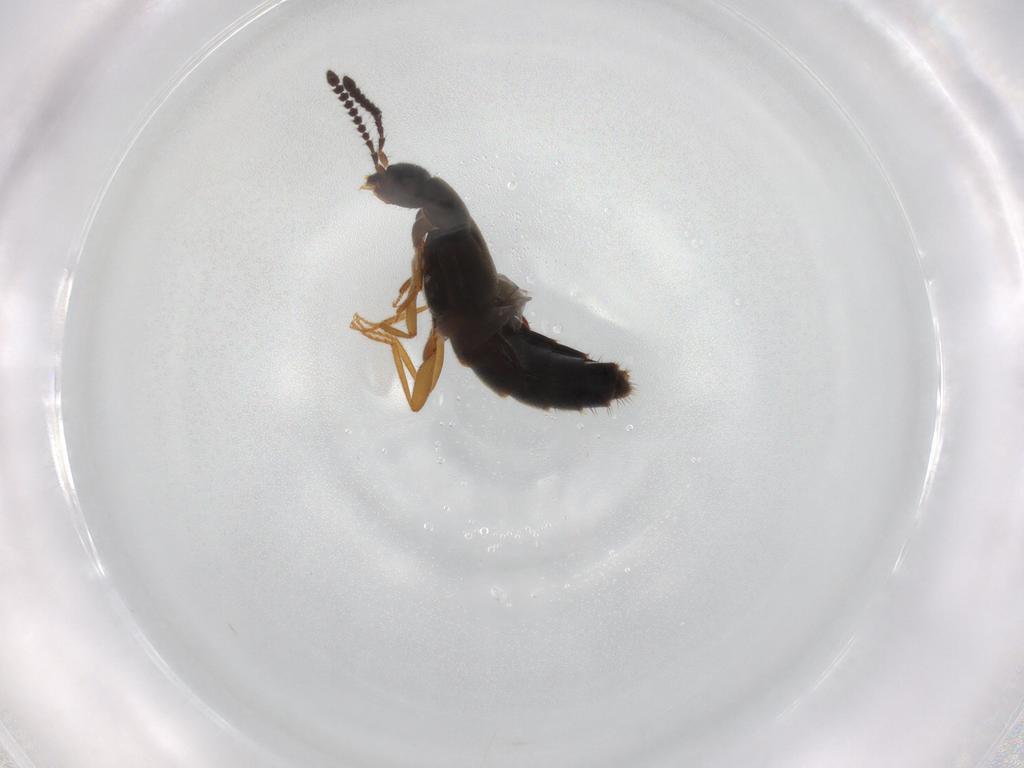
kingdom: Animalia
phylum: Arthropoda
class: Insecta
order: Coleoptera
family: Staphylinidae
